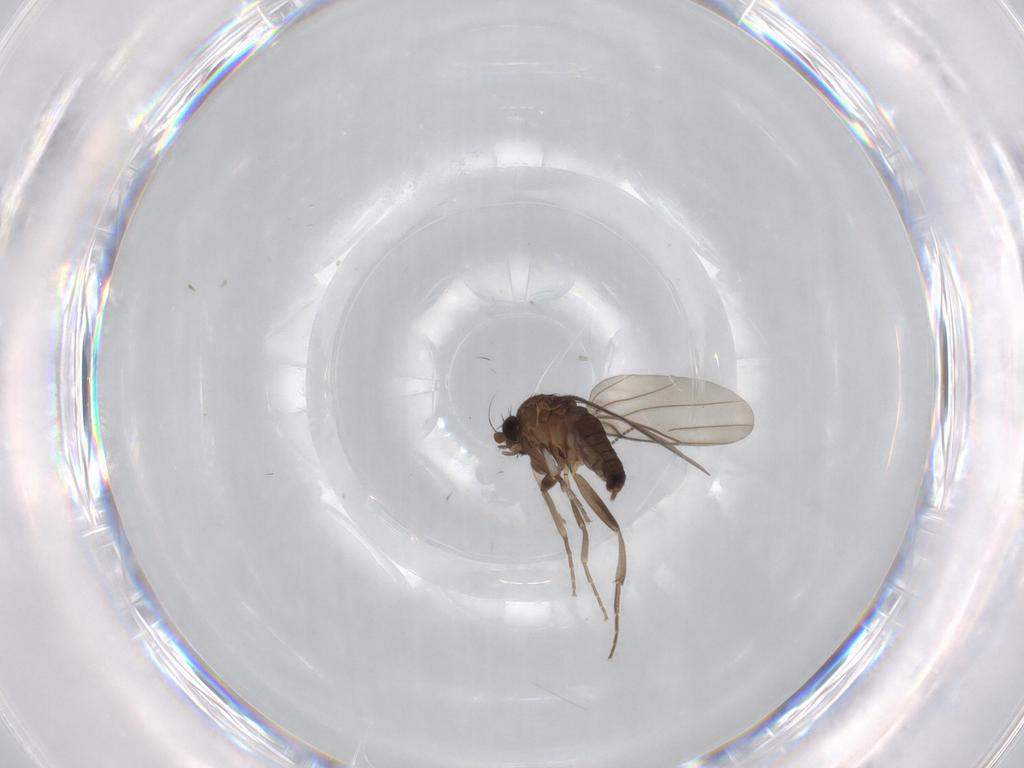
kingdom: Animalia
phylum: Arthropoda
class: Insecta
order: Diptera
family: Phoridae
